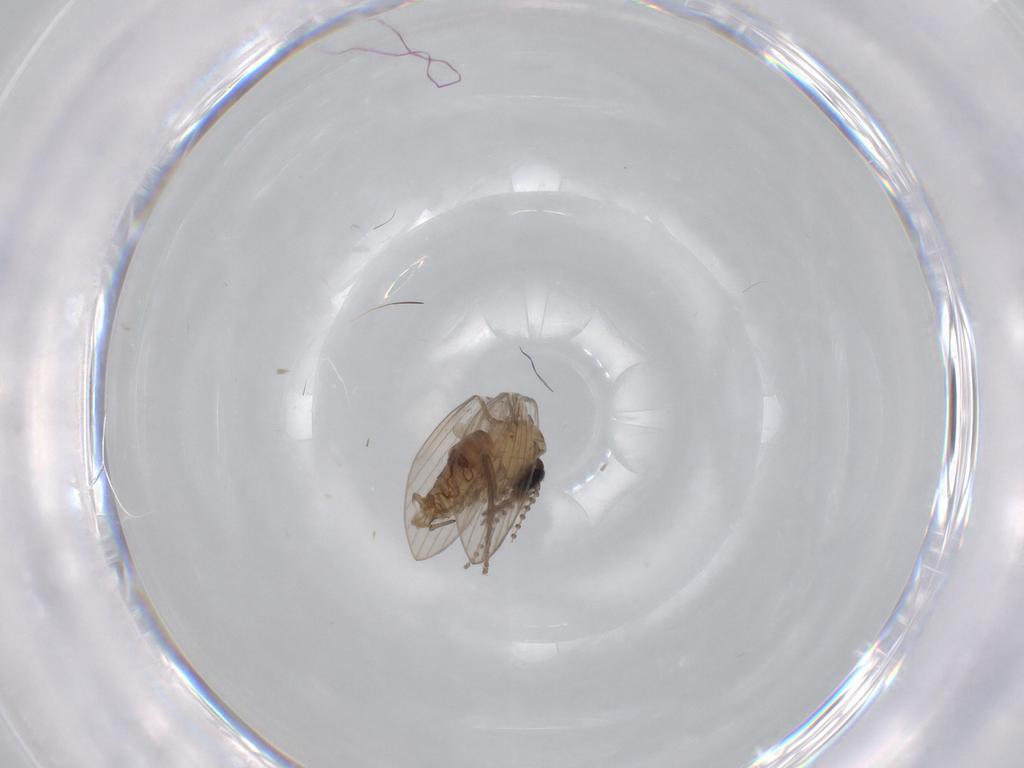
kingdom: Animalia
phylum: Arthropoda
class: Insecta
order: Diptera
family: Psychodidae
